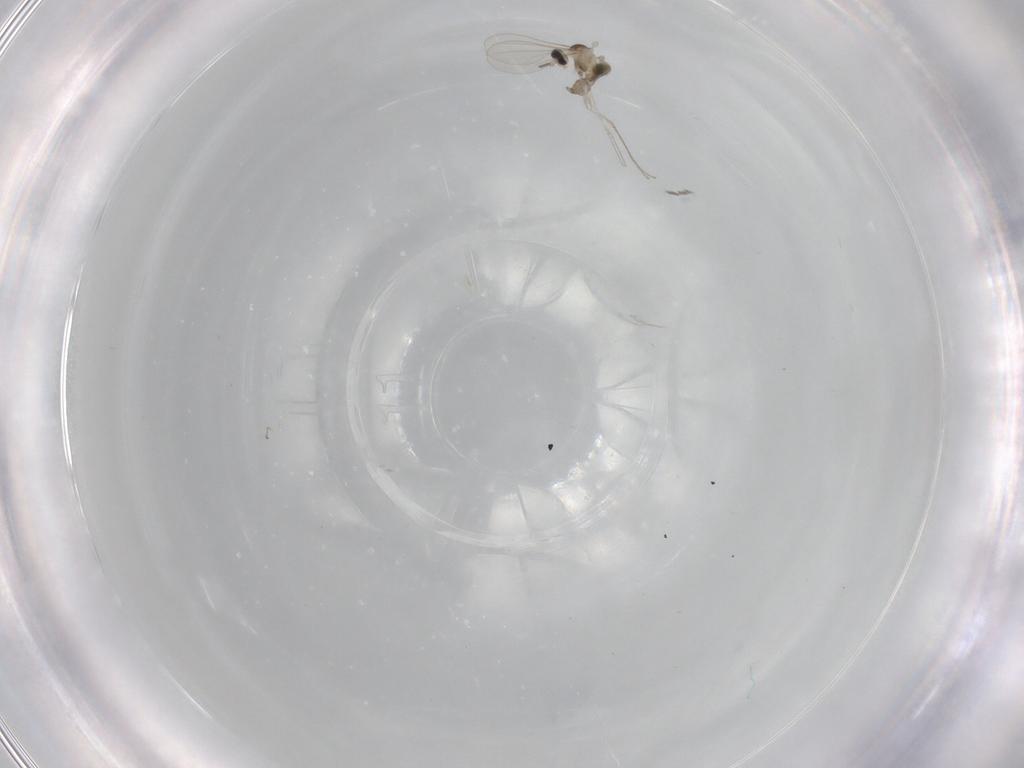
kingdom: Animalia
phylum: Arthropoda
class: Insecta
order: Diptera
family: Cecidomyiidae
